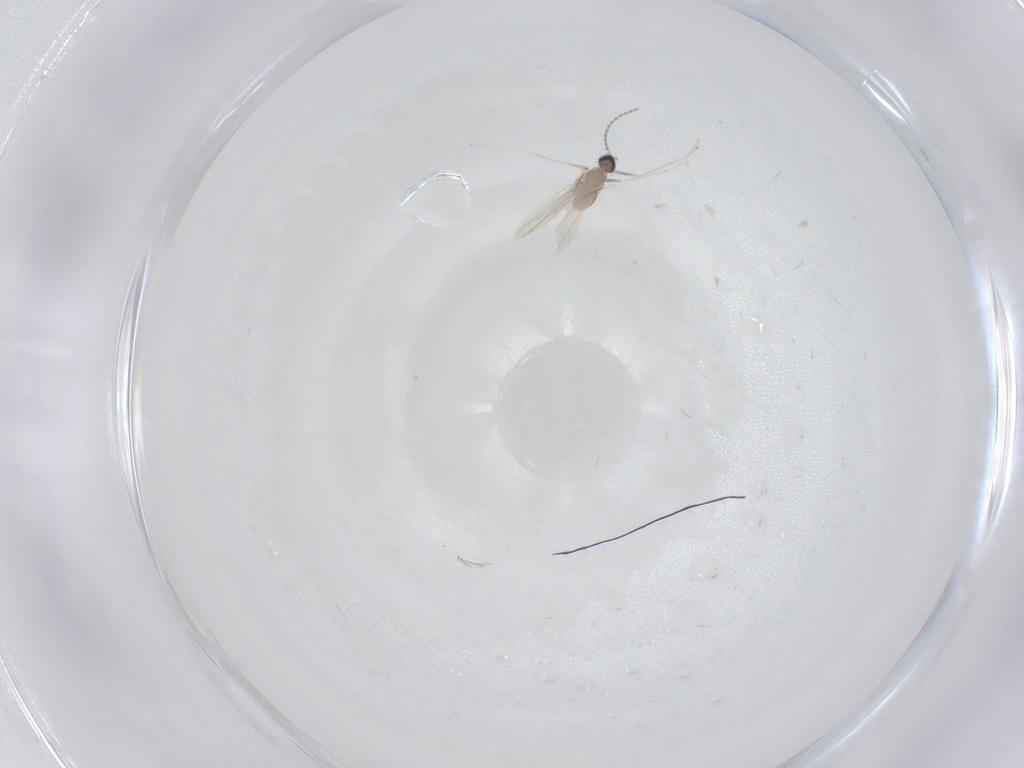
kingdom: Animalia
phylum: Arthropoda
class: Insecta
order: Diptera
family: Cecidomyiidae
